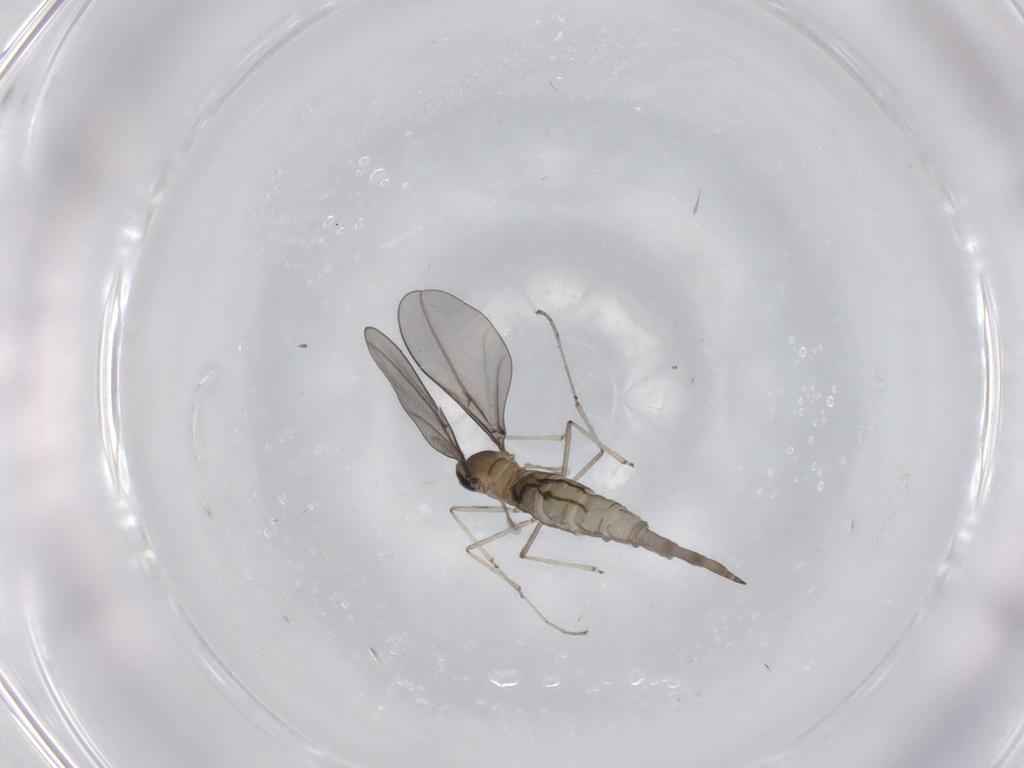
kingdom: Animalia
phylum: Arthropoda
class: Insecta
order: Diptera
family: Cecidomyiidae
